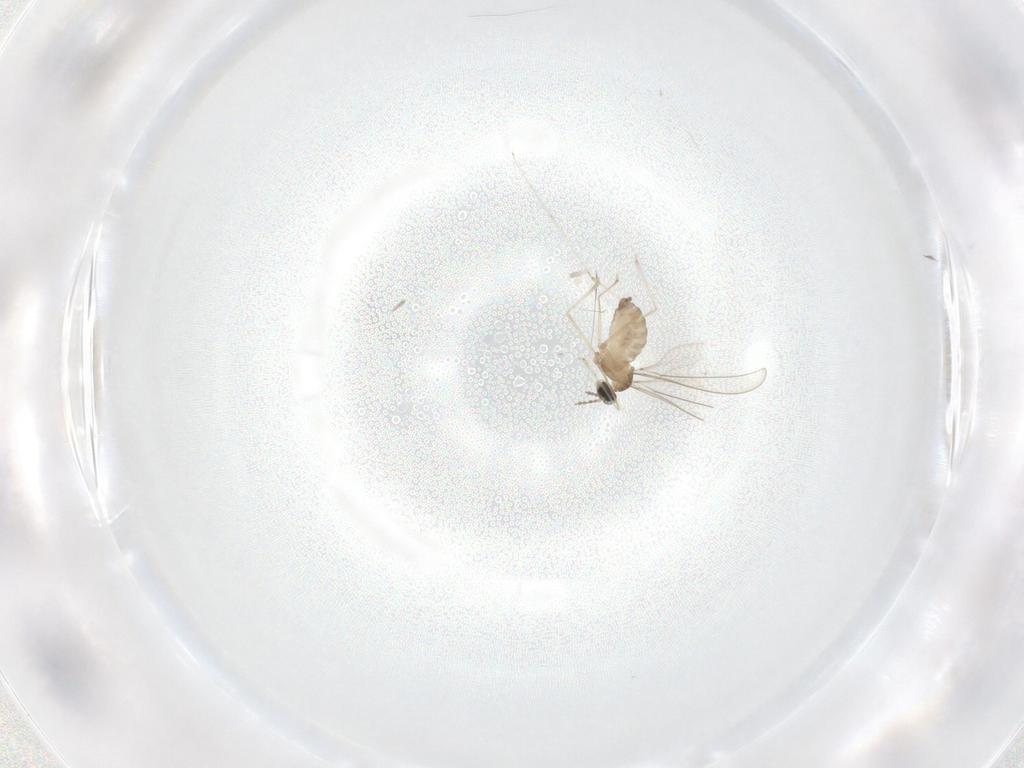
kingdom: Animalia
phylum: Arthropoda
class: Insecta
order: Diptera
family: Cecidomyiidae
